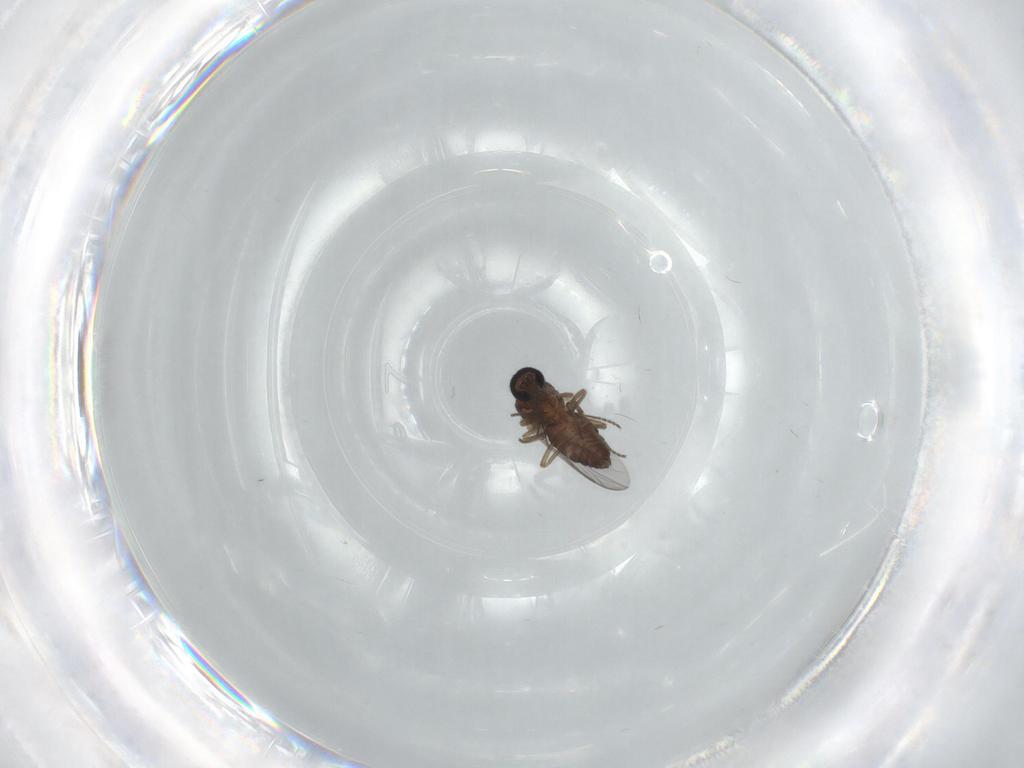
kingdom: Animalia
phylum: Arthropoda
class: Insecta
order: Diptera
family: Ceratopogonidae
